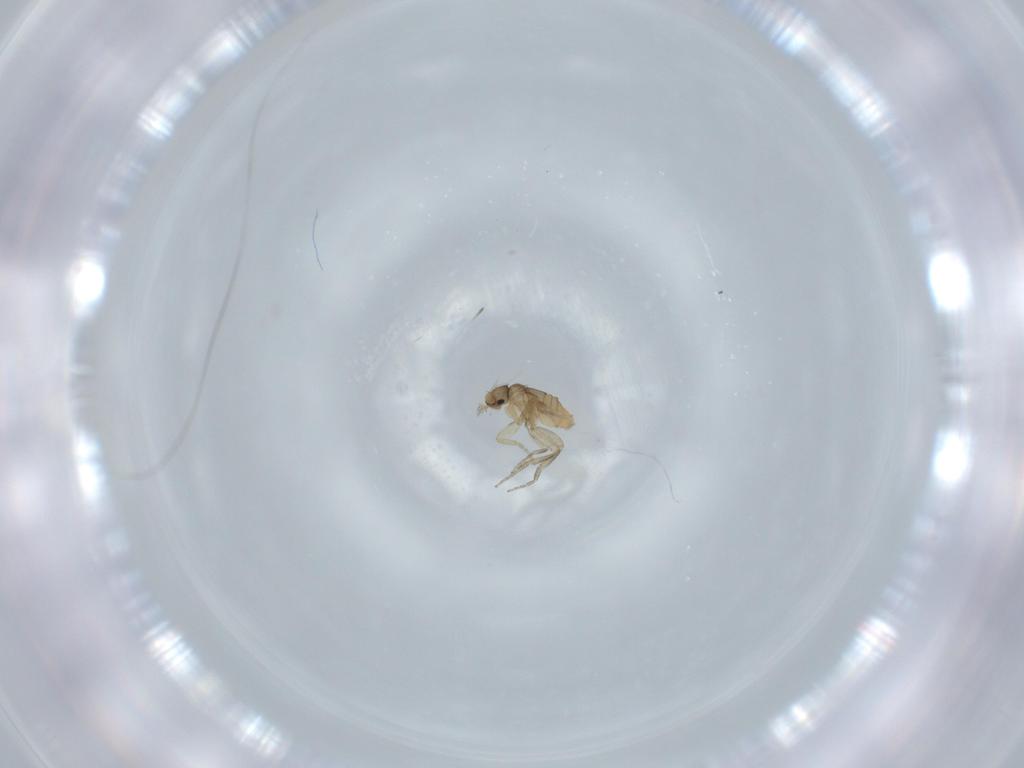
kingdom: Animalia
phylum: Arthropoda
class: Insecta
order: Diptera
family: Phoridae
